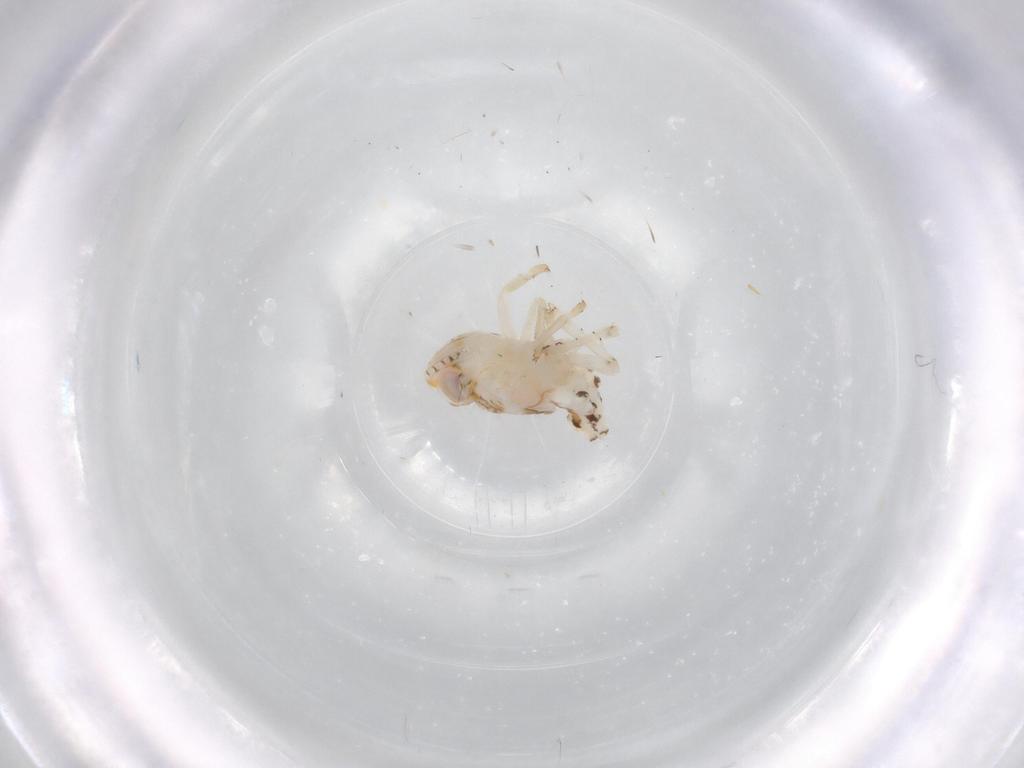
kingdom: Animalia
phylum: Arthropoda
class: Insecta
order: Hemiptera
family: Nogodinidae
